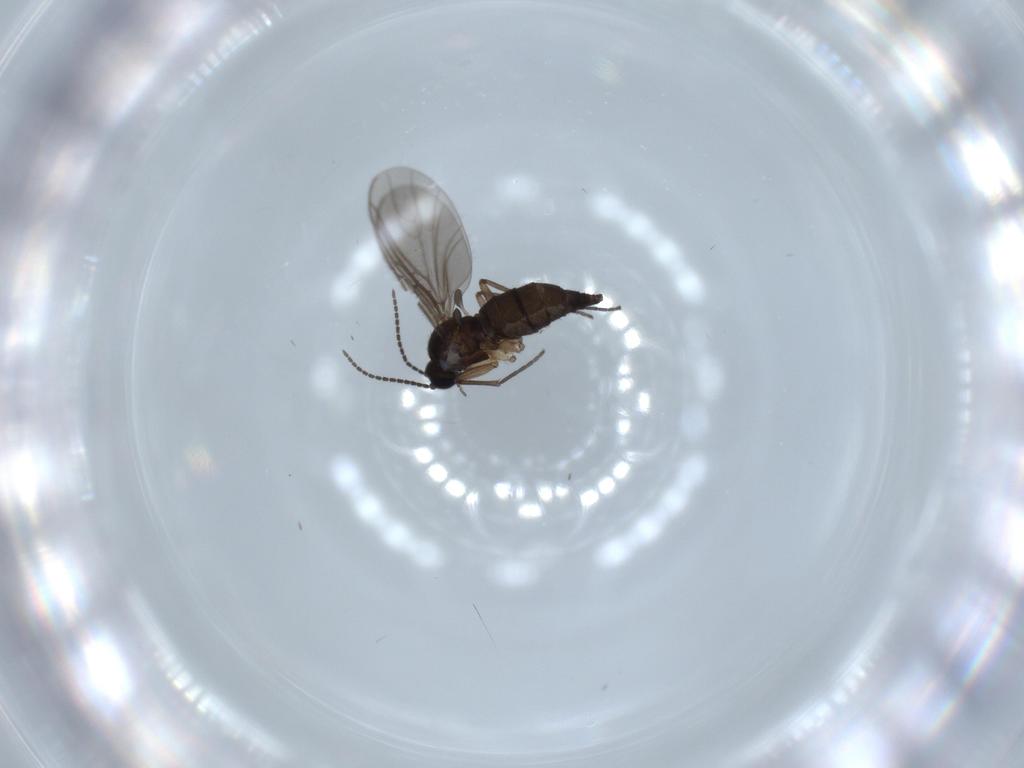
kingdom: Animalia
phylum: Arthropoda
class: Insecta
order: Diptera
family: Sciaridae
